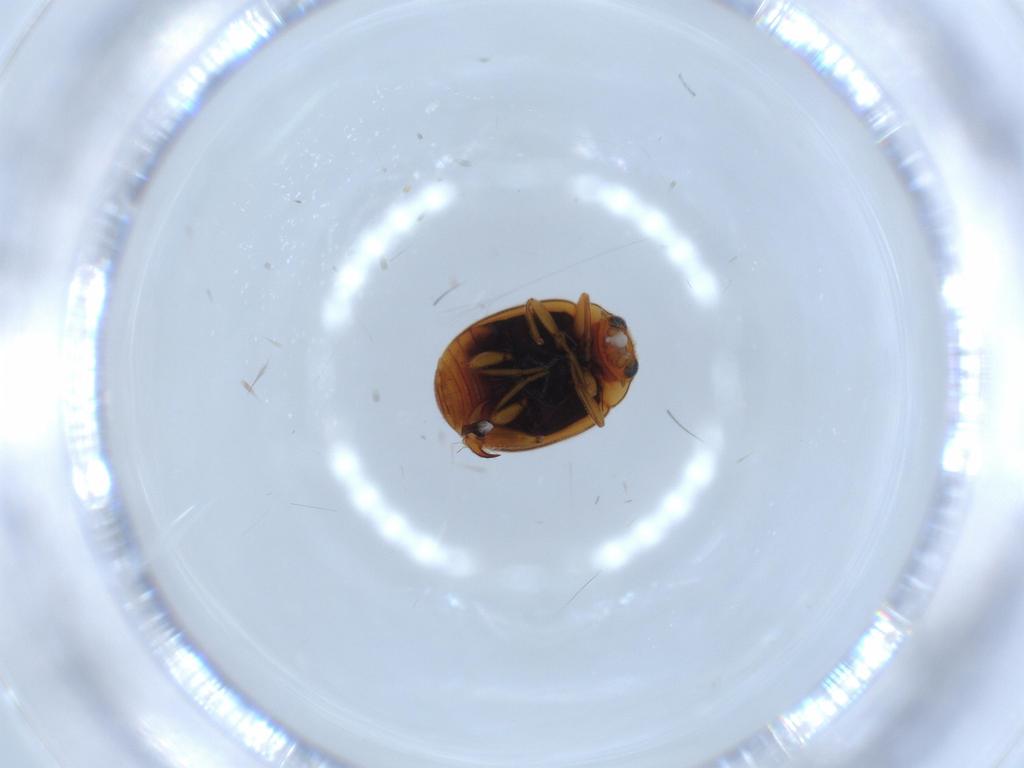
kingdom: Animalia
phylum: Arthropoda
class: Insecta
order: Coleoptera
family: Coccinellidae
